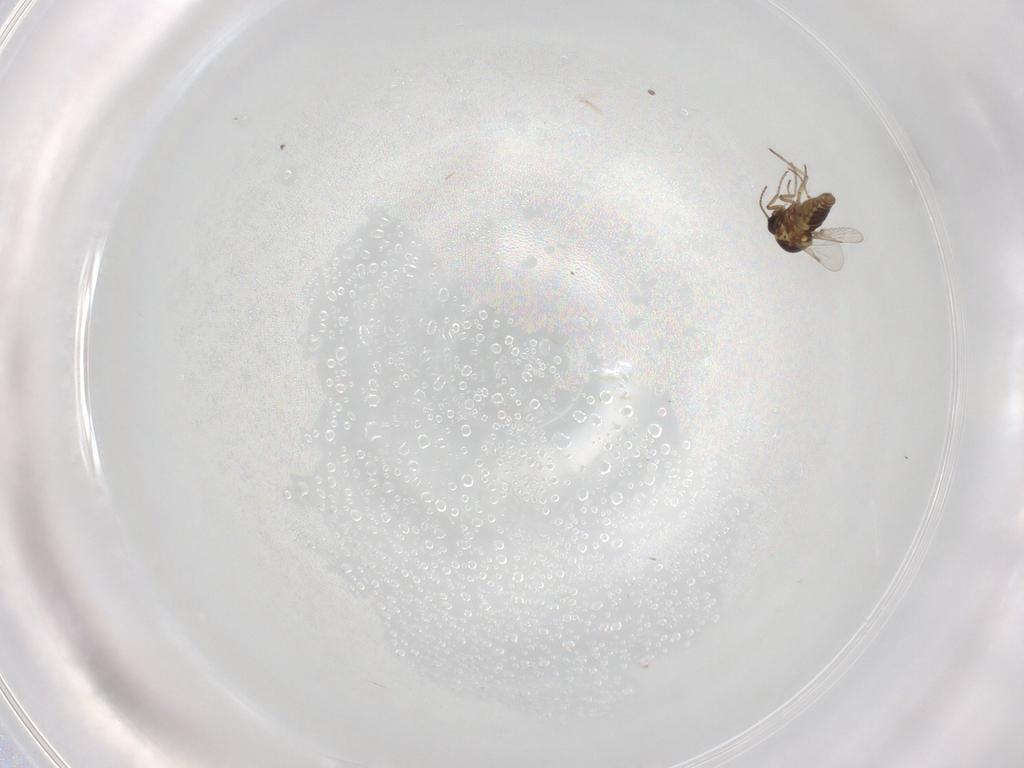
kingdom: Animalia
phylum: Arthropoda
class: Insecta
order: Diptera
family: Ceratopogonidae
